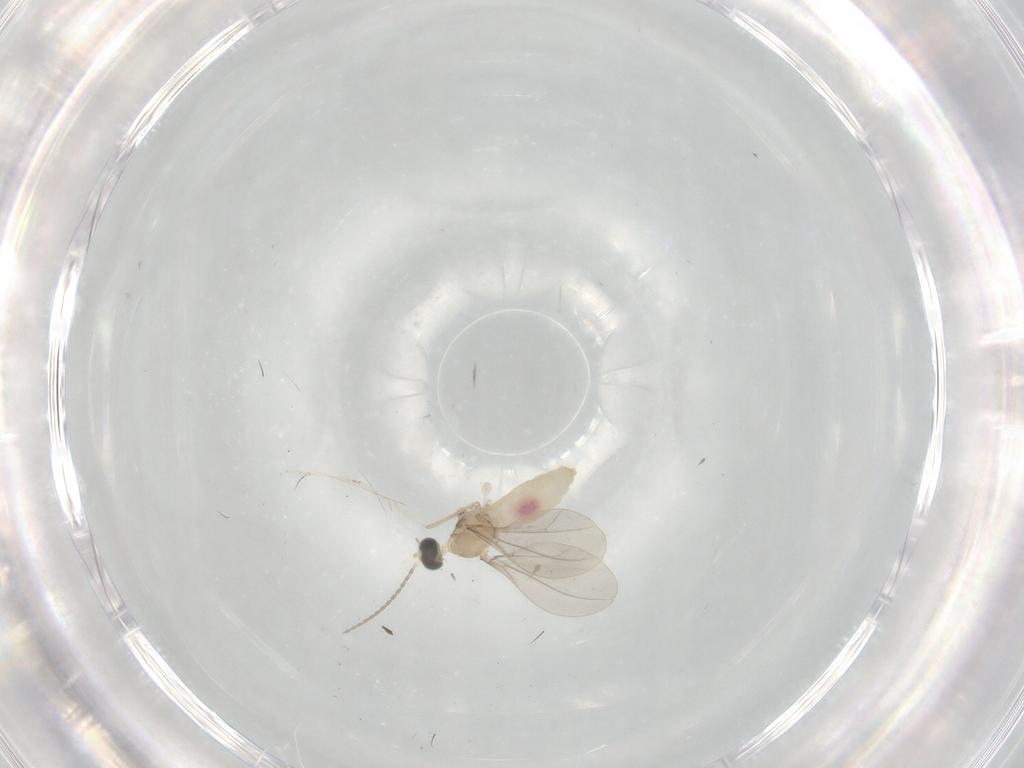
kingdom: Animalia
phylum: Arthropoda
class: Insecta
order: Diptera
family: Cecidomyiidae
